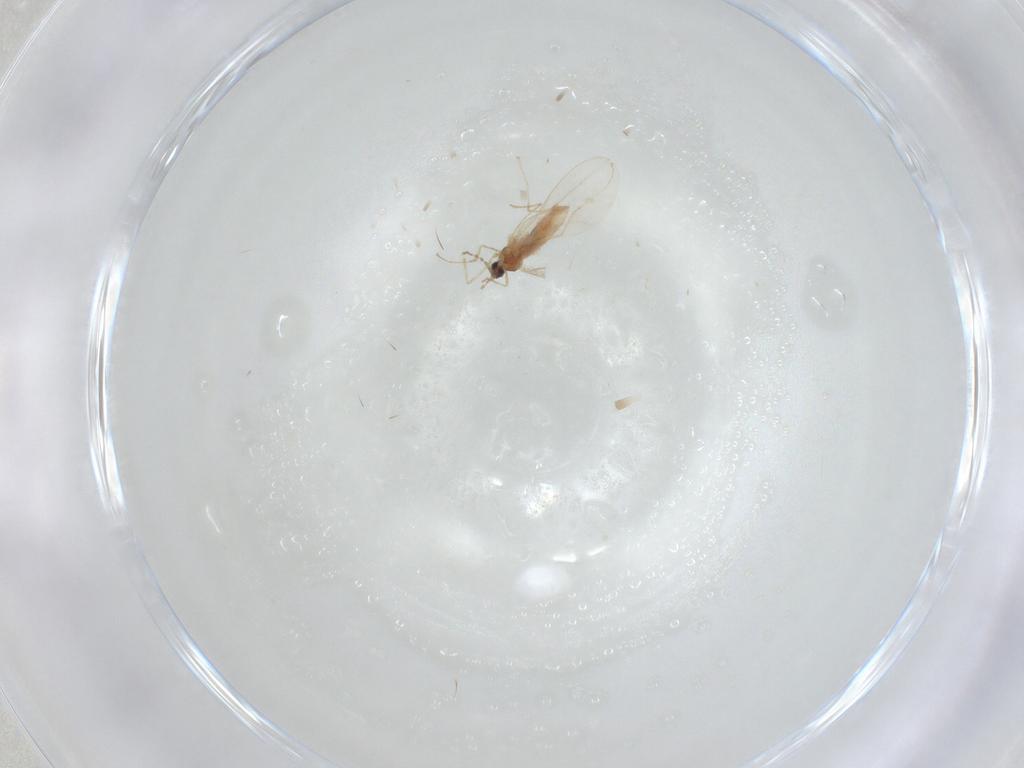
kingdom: Animalia
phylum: Arthropoda
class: Insecta
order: Diptera
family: Cecidomyiidae
